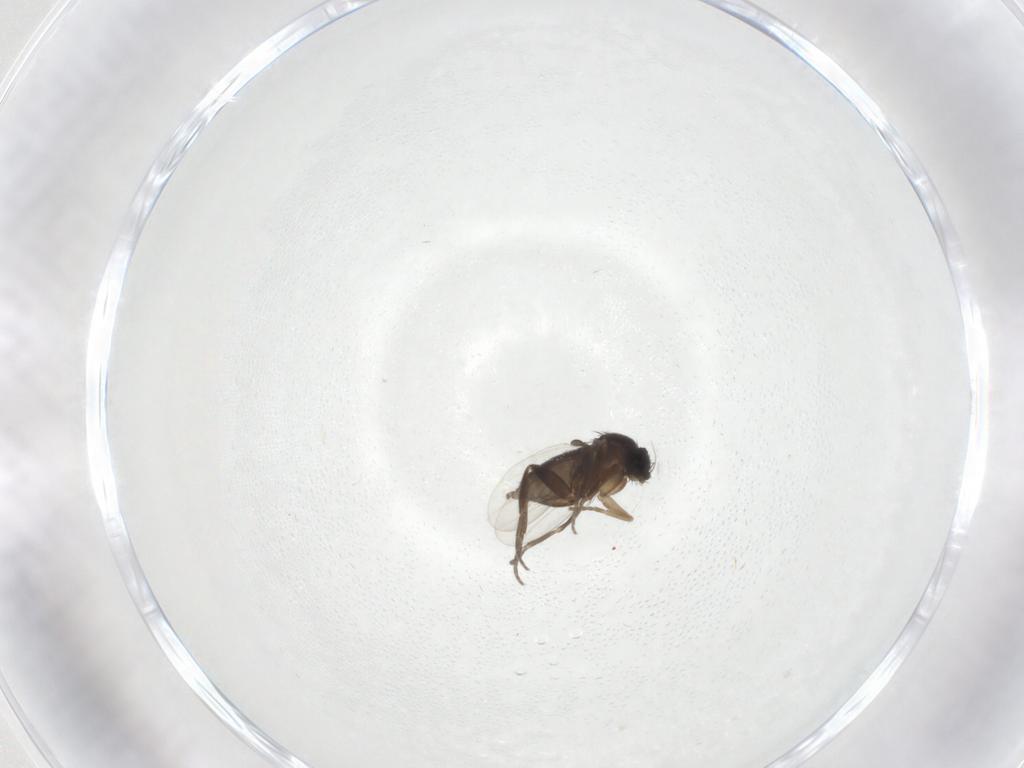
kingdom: Animalia
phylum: Arthropoda
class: Insecta
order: Diptera
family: Phoridae
